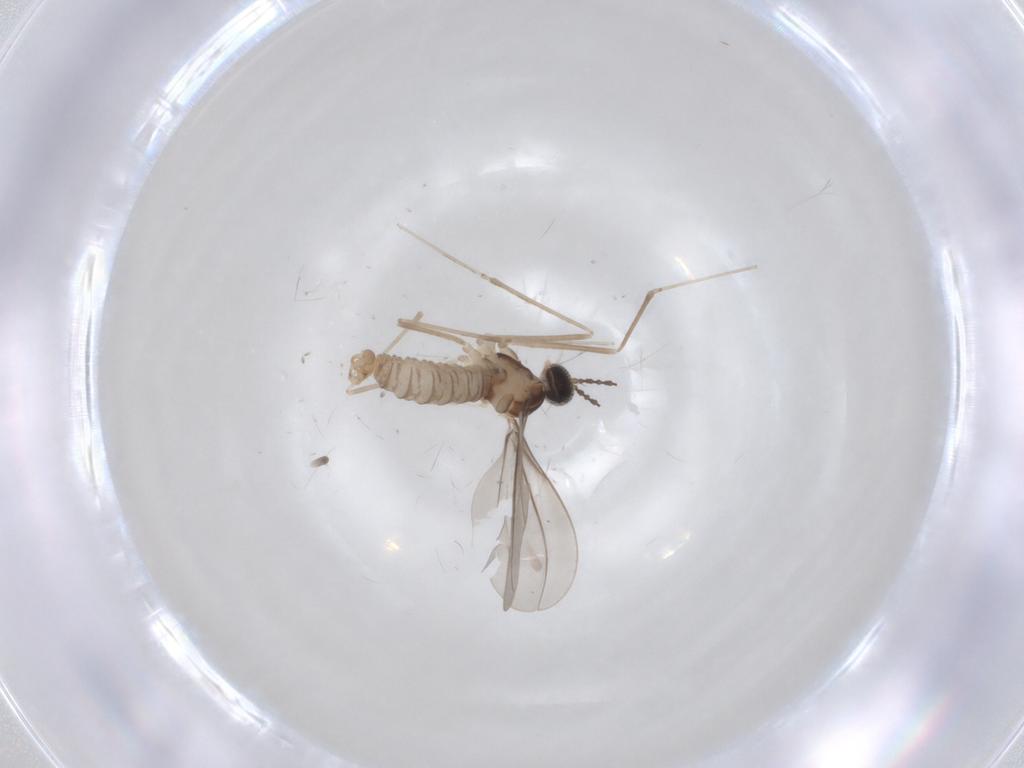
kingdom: Animalia
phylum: Arthropoda
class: Insecta
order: Diptera
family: Phoridae
